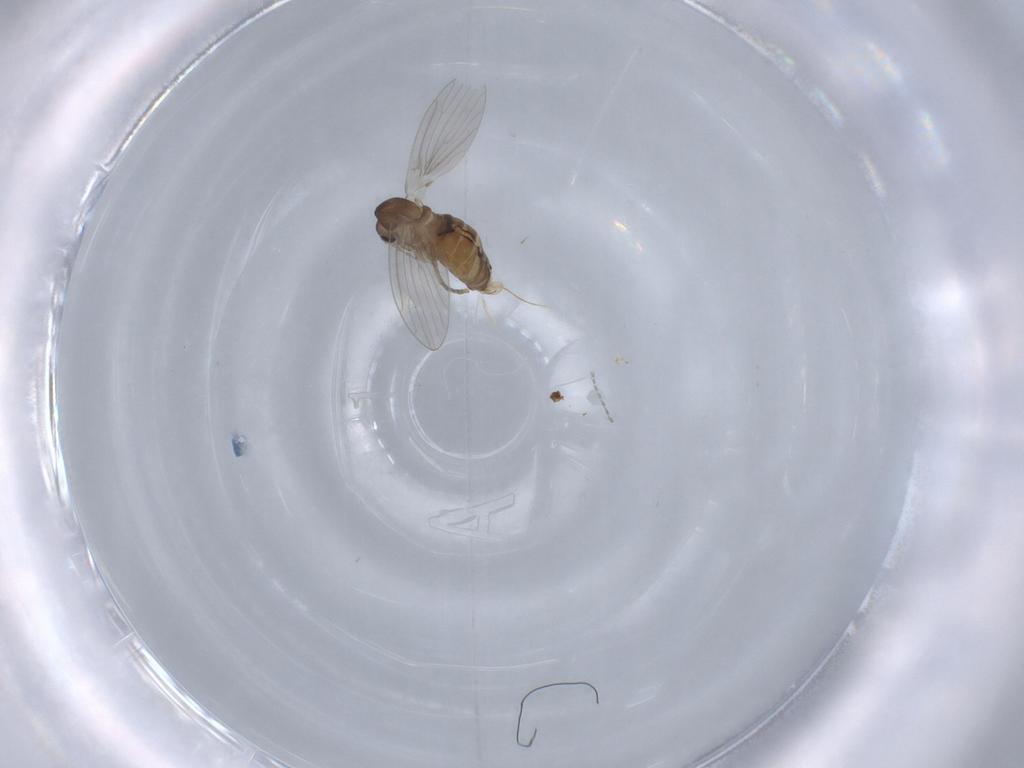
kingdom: Animalia
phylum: Arthropoda
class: Insecta
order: Diptera
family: Psychodidae
